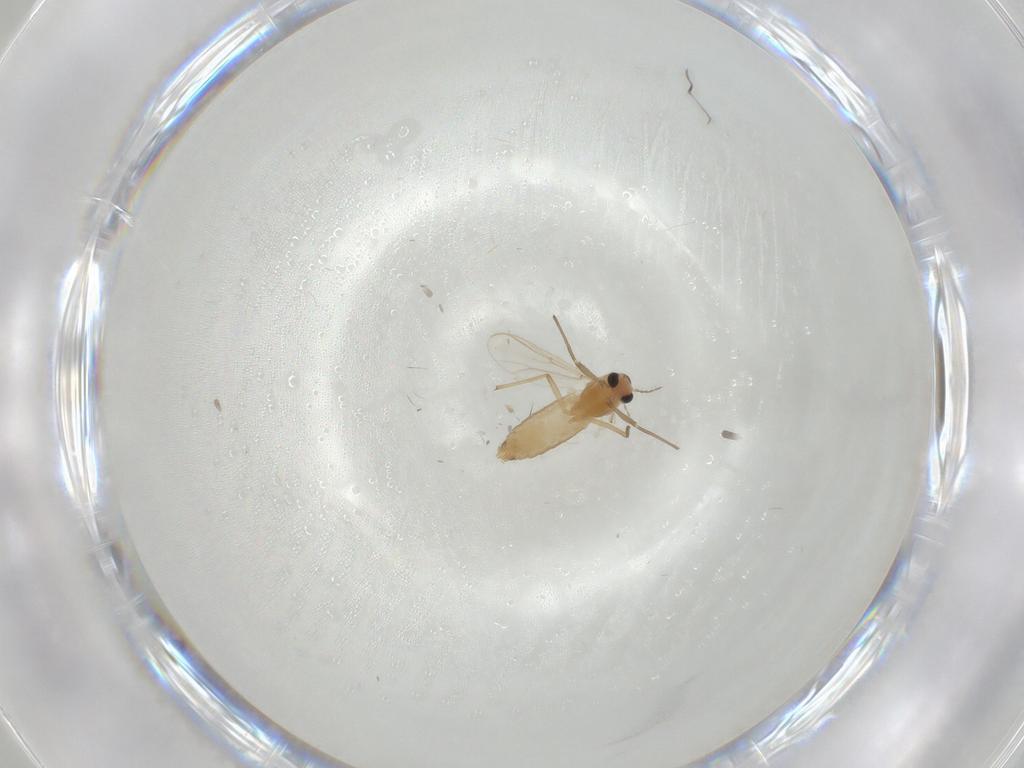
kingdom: Animalia
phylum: Arthropoda
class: Insecta
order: Diptera
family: Chironomidae
